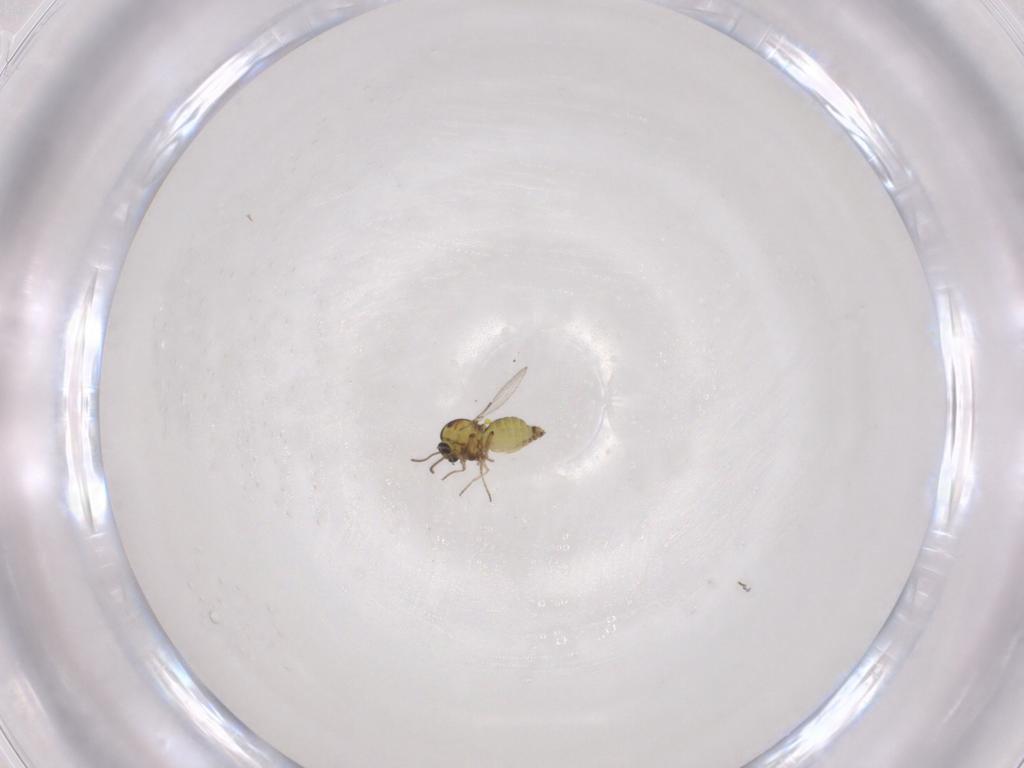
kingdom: Animalia
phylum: Arthropoda
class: Insecta
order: Diptera
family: Ceratopogonidae
